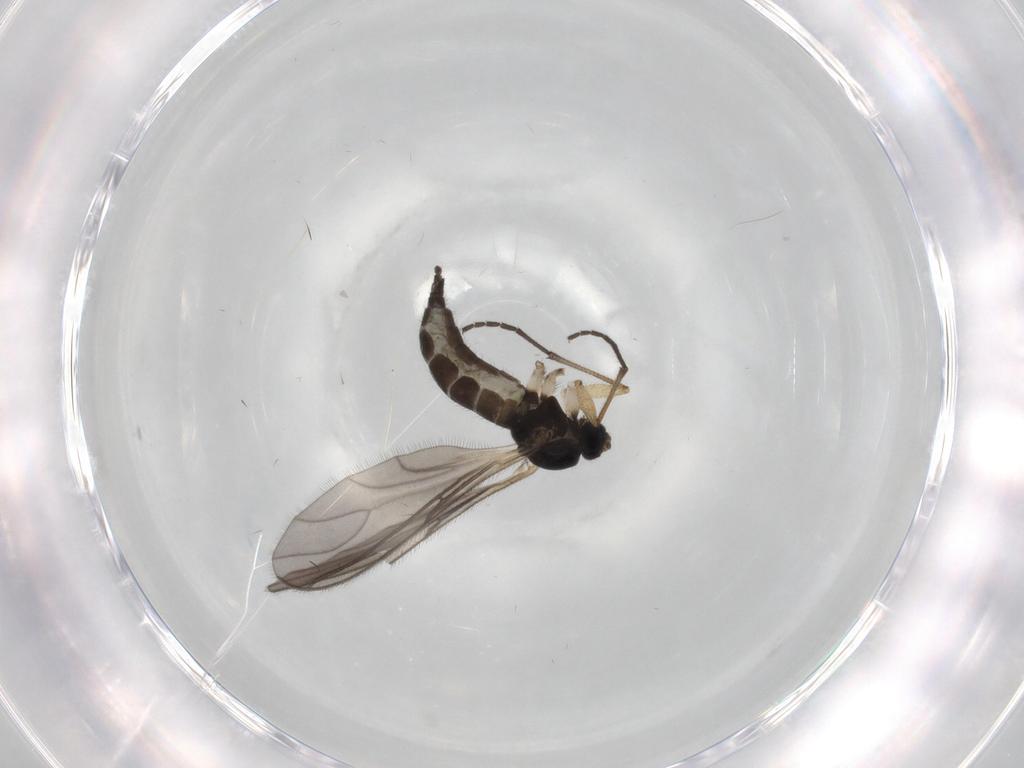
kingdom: Animalia
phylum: Arthropoda
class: Insecta
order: Diptera
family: Sciaridae
